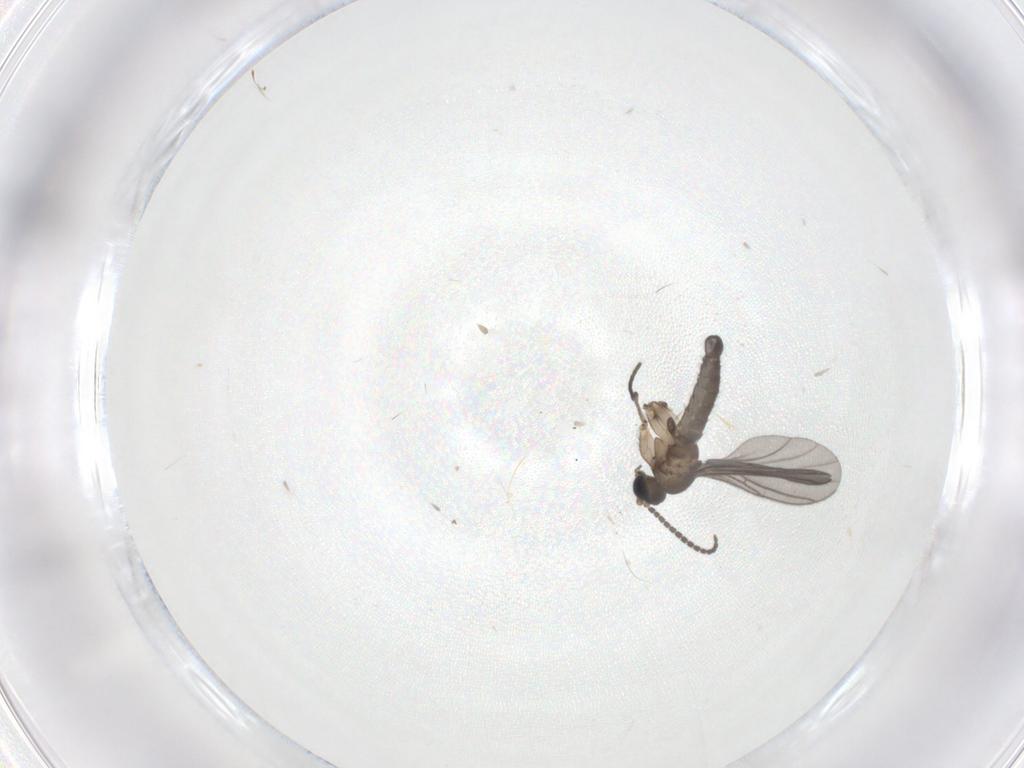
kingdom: Animalia
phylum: Arthropoda
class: Insecta
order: Diptera
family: Sciaridae
